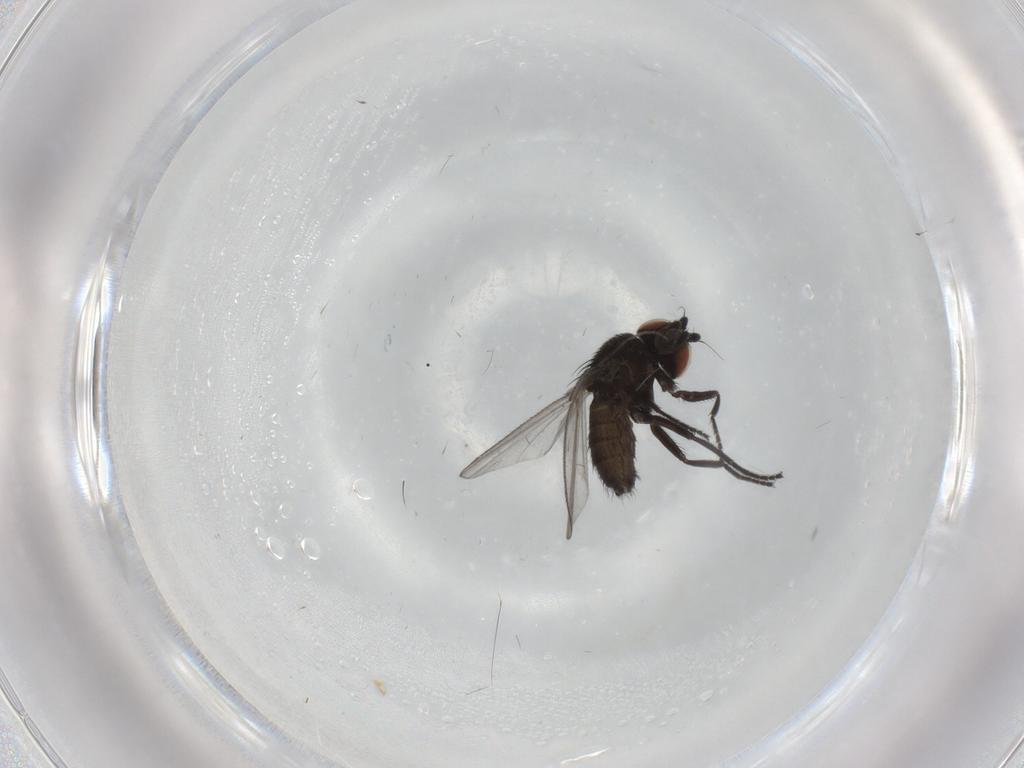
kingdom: Animalia
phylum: Arthropoda
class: Insecta
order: Diptera
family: Milichiidae
